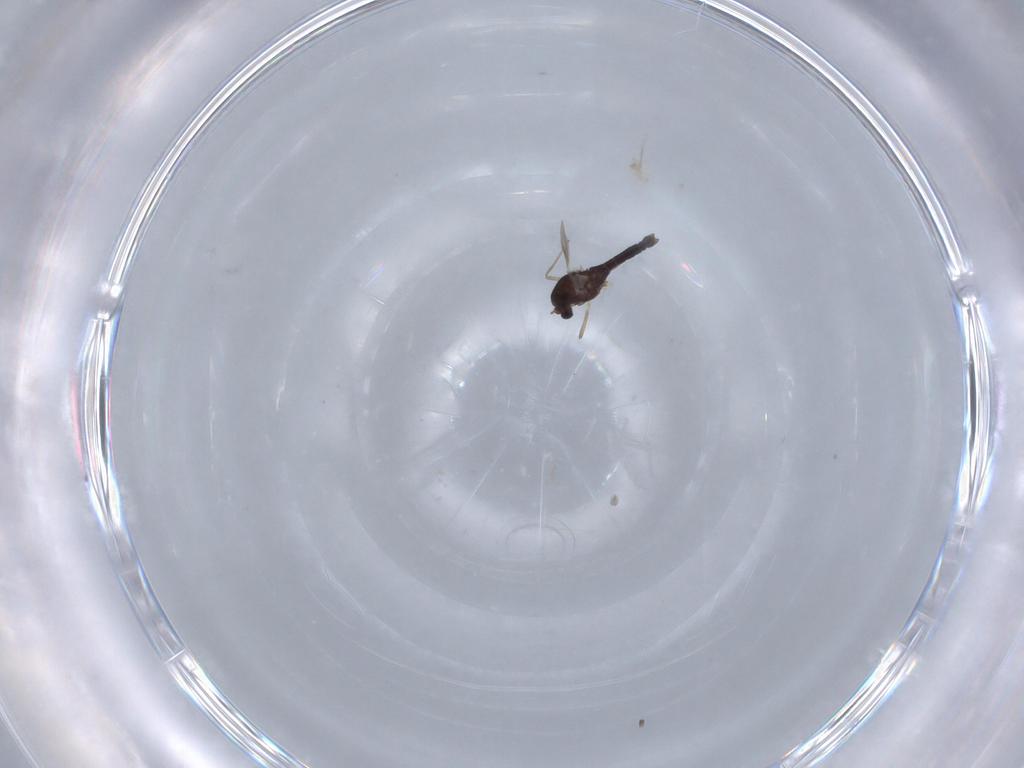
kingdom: Animalia
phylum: Arthropoda
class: Insecta
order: Diptera
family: Chironomidae
